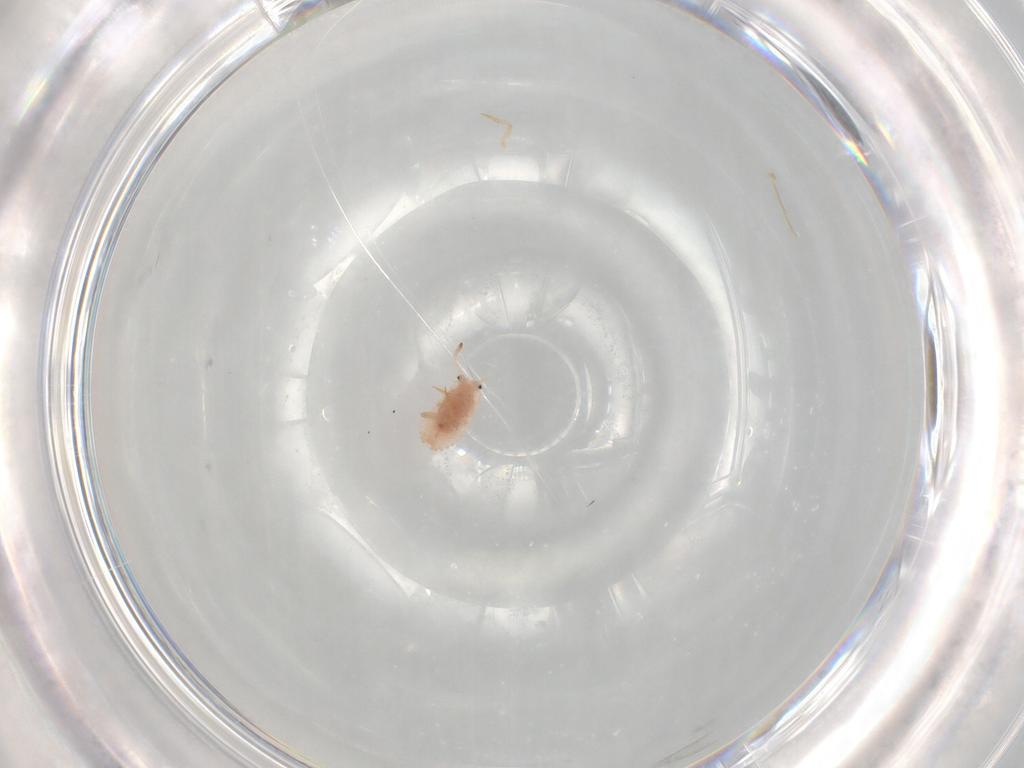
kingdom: Animalia
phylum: Arthropoda
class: Insecta
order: Hemiptera
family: Coccoidea_incertae_sedis
